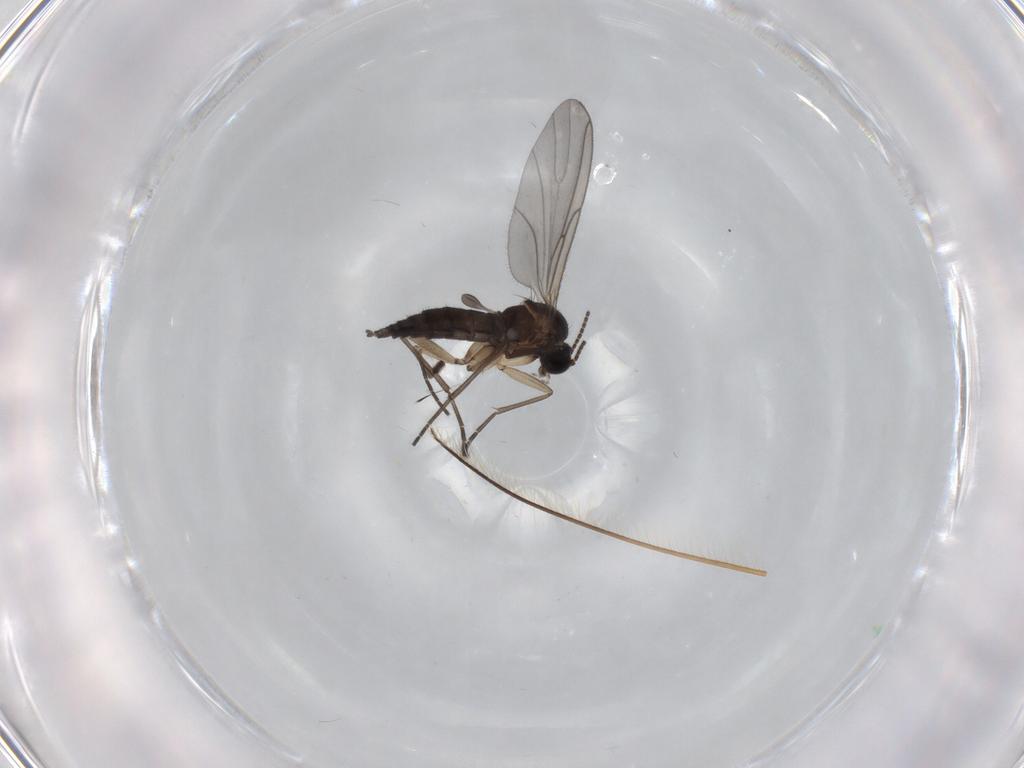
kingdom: Animalia
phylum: Arthropoda
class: Insecta
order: Diptera
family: Sciaridae
